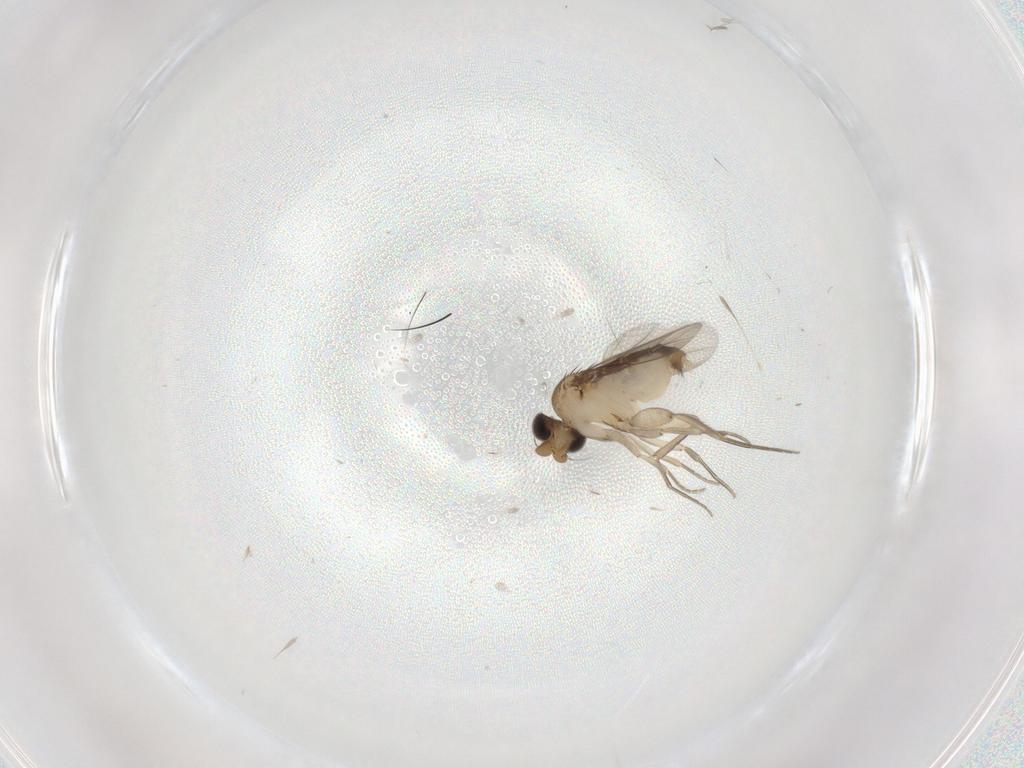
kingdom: Animalia
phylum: Arthropoda
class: Insecta
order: Diptera
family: Phoridae
